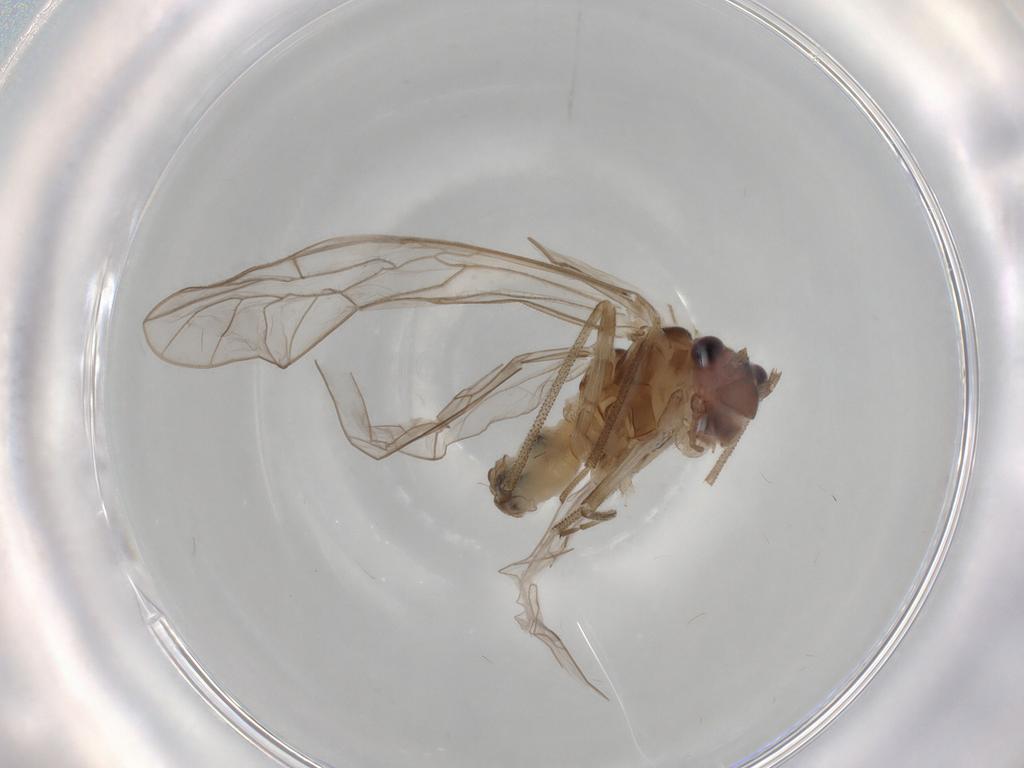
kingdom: Animalia
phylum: Arthropoda
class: Insecta
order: Psocodea
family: Stenopsocidae
